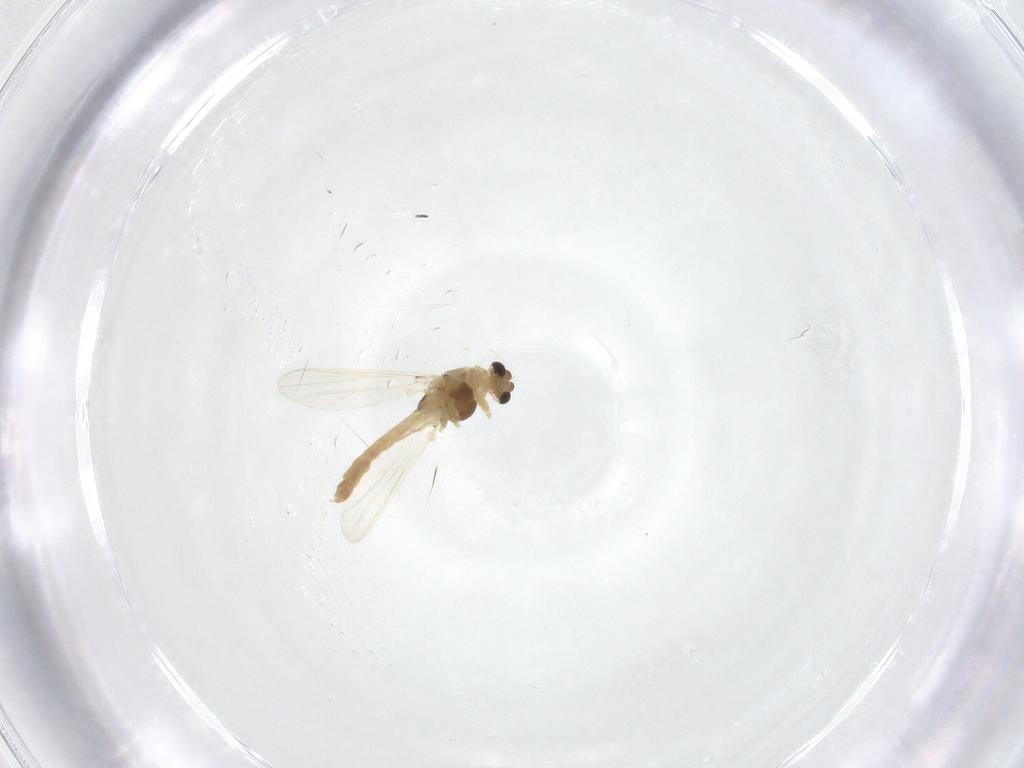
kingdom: Animalia
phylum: Arthropoda
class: Insecta
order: Diptera
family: Chironomidae
